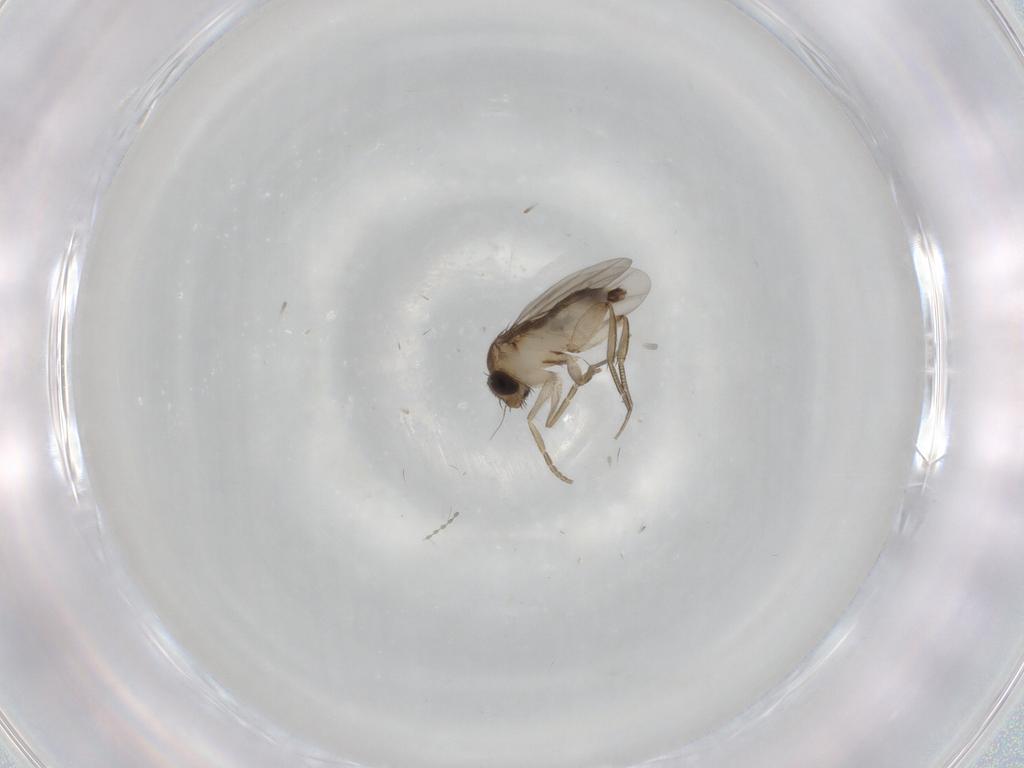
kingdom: Animalia
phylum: Arthropoda
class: Insecta
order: Diptera
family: Phoridae
